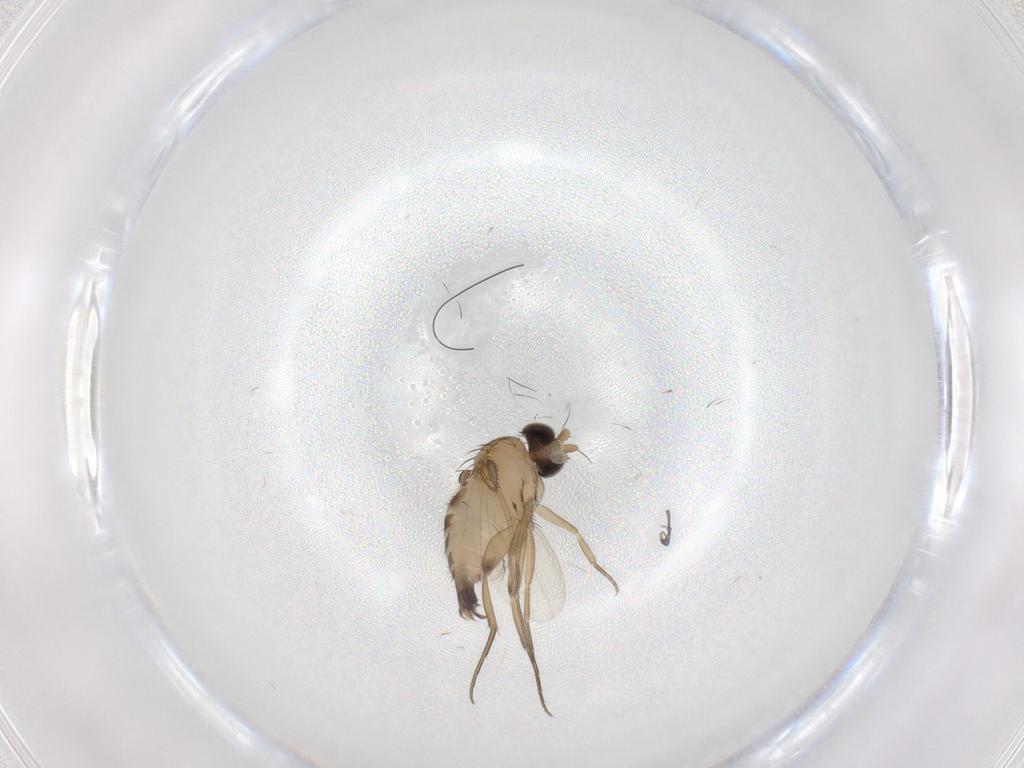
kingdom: Animalia
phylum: Arthropoda
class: Insecta
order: Diptera
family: Phoridae
